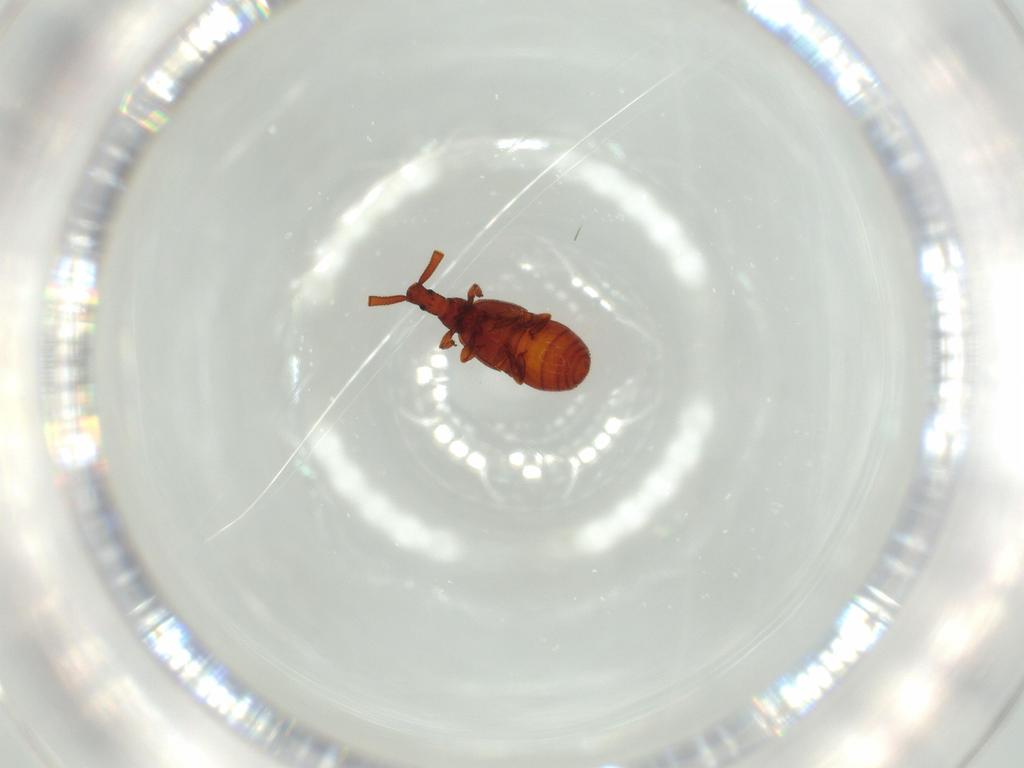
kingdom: Animalia
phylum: Arthropoda
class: Insecta
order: Coleoptera
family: Staphylinidae
